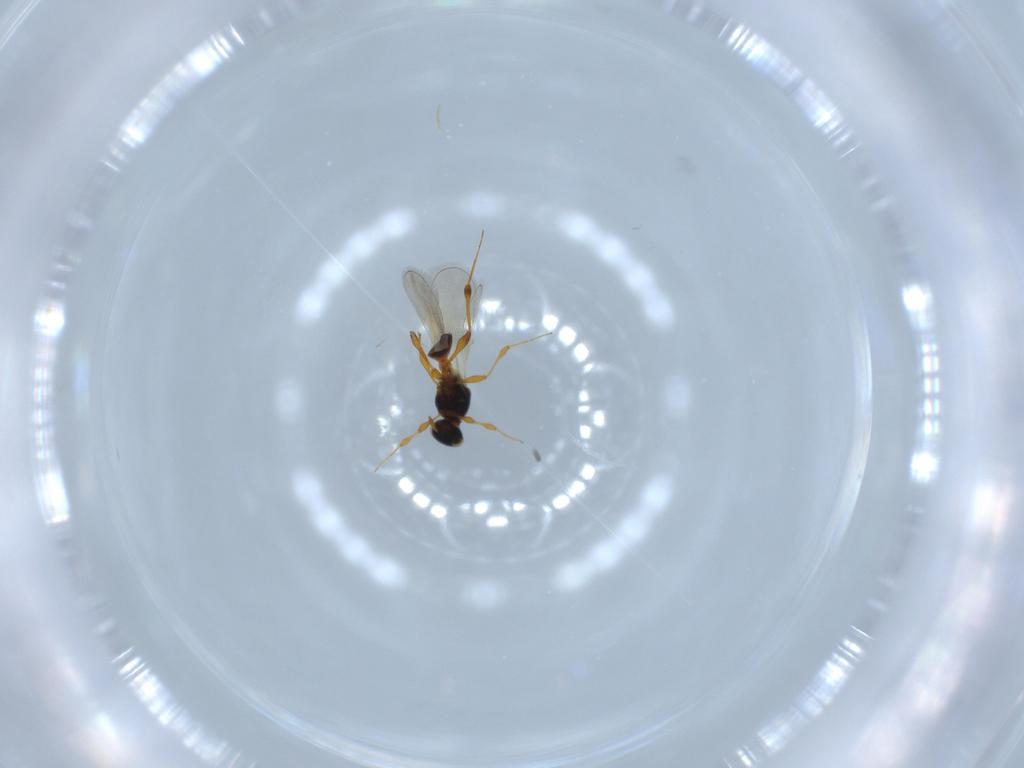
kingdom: Animalia
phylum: Arthropoda
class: Insecta
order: Hymenoptera
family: Platygastridae
